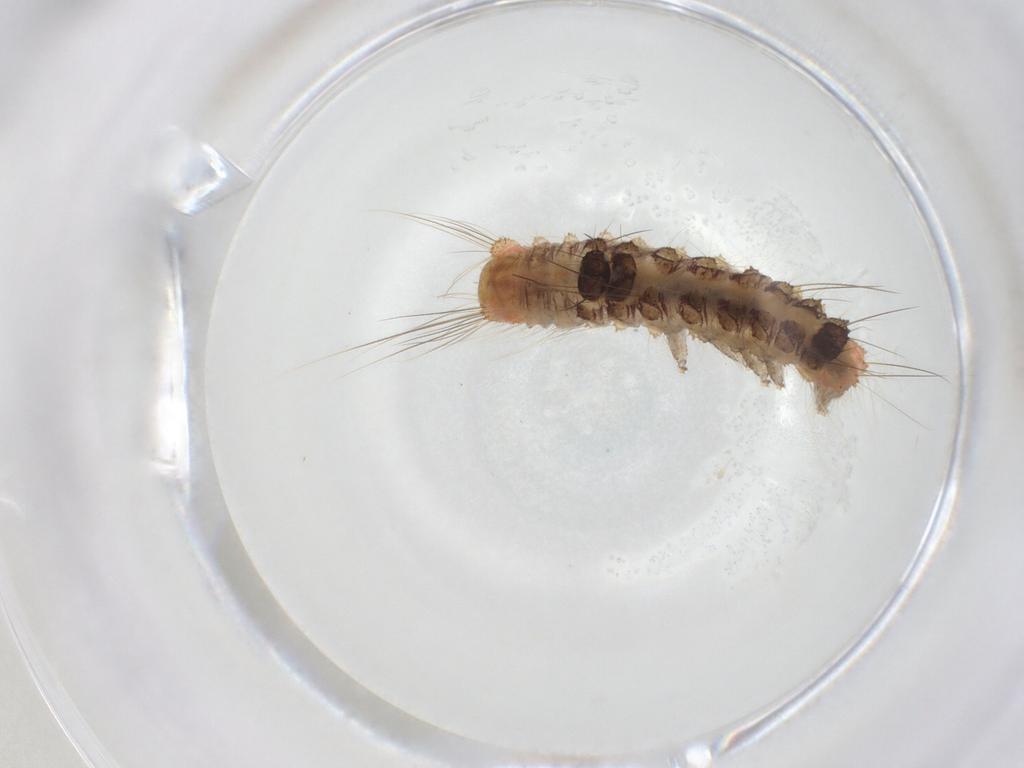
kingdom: Animalia
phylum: Arthropoda
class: Insecta
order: Lepidoptera
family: Erebidae
